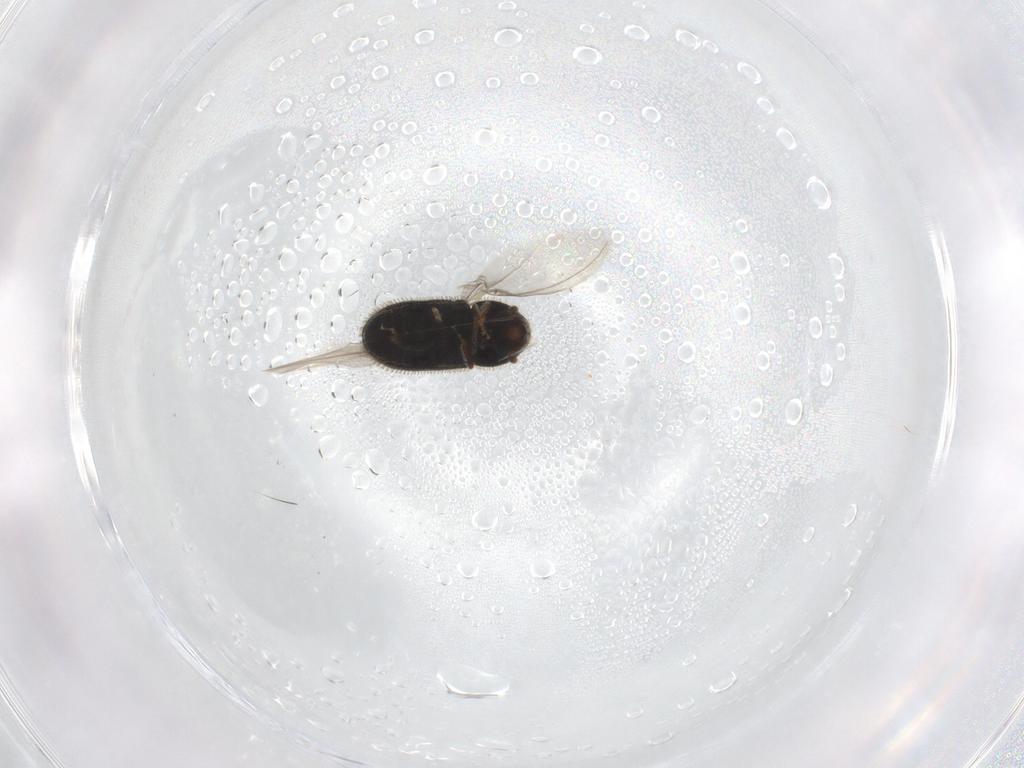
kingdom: Animalia
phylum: Arthropoda
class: Insecta
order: Coleoptera
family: Curculionidae
